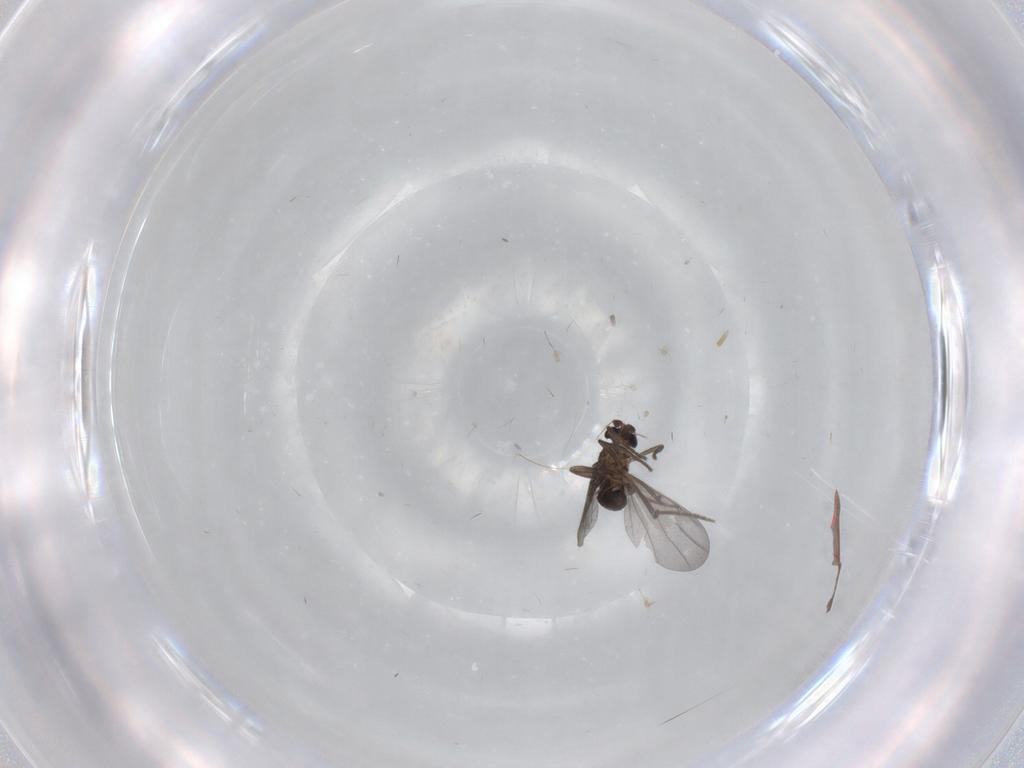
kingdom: Animalia
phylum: Arthropoda
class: Insecta
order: Diptera
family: Phoridae
